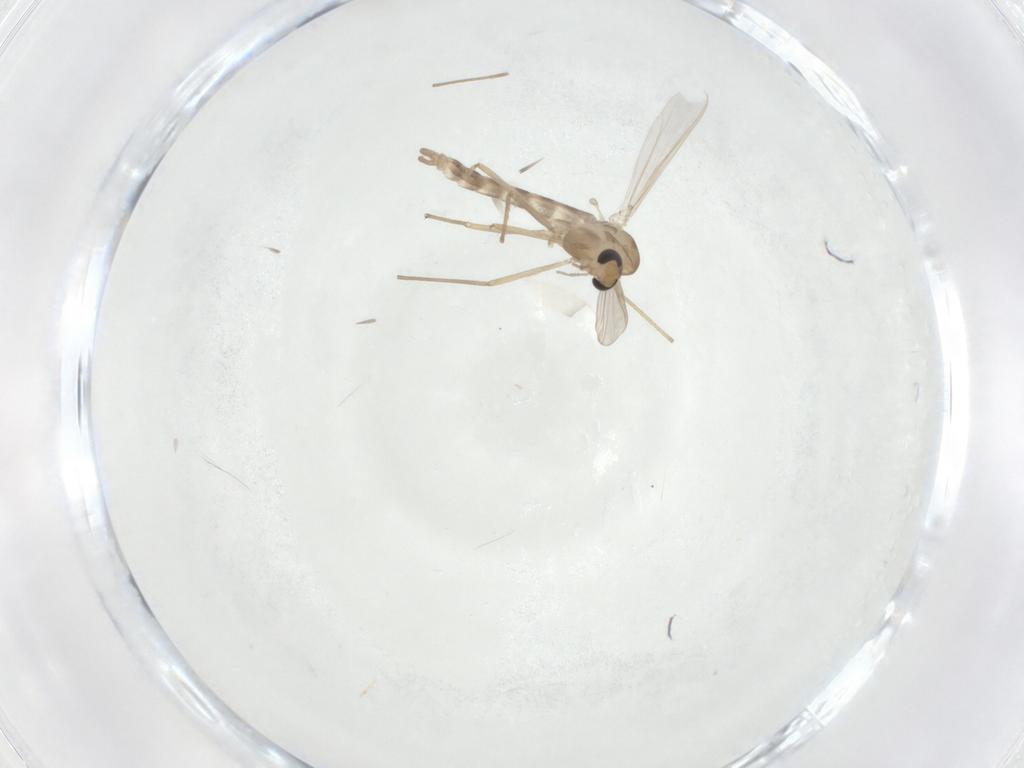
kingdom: Animalia
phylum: Arthropoda
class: Insecta
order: Diptera
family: Chironomidae
